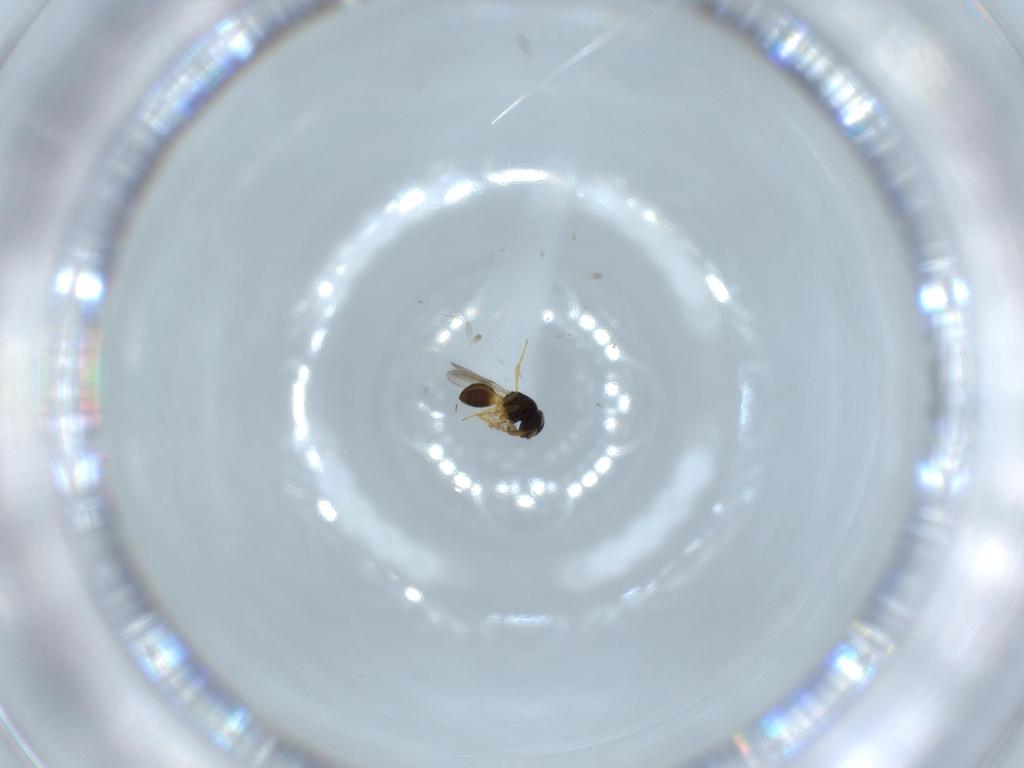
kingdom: Animalia
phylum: Arthropoda
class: Insecta
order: Hymenoptera
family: Scelionidae
